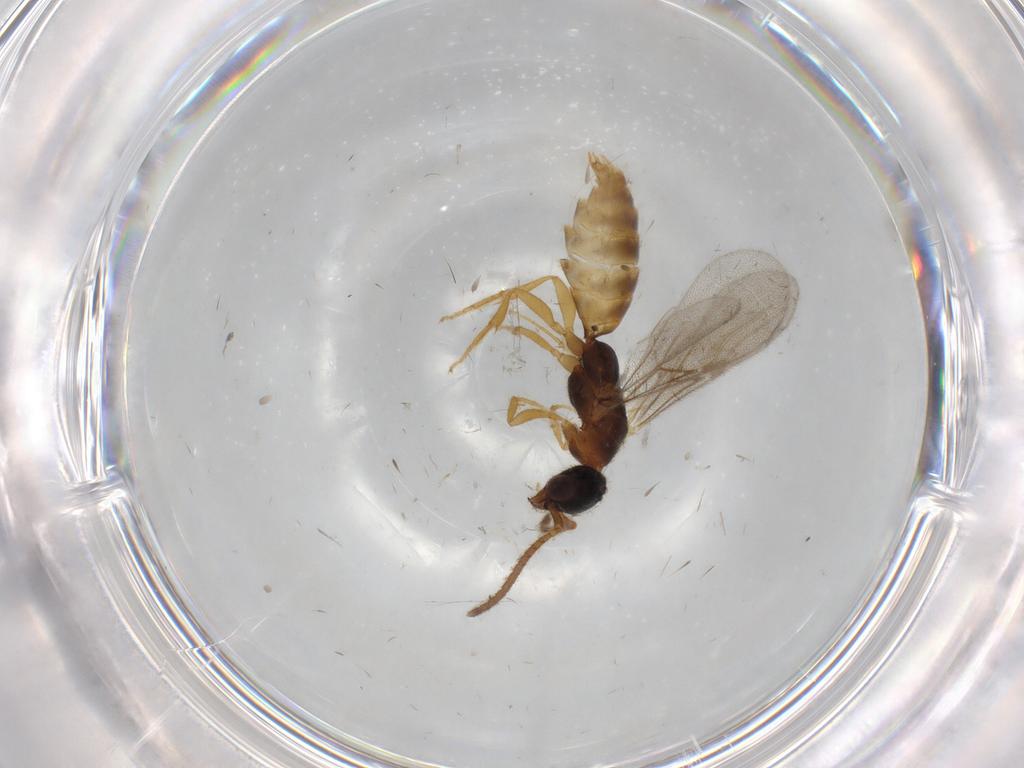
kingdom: Animalia
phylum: Arthropoda
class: Insecta
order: Hymenoptera
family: Bethylidae
